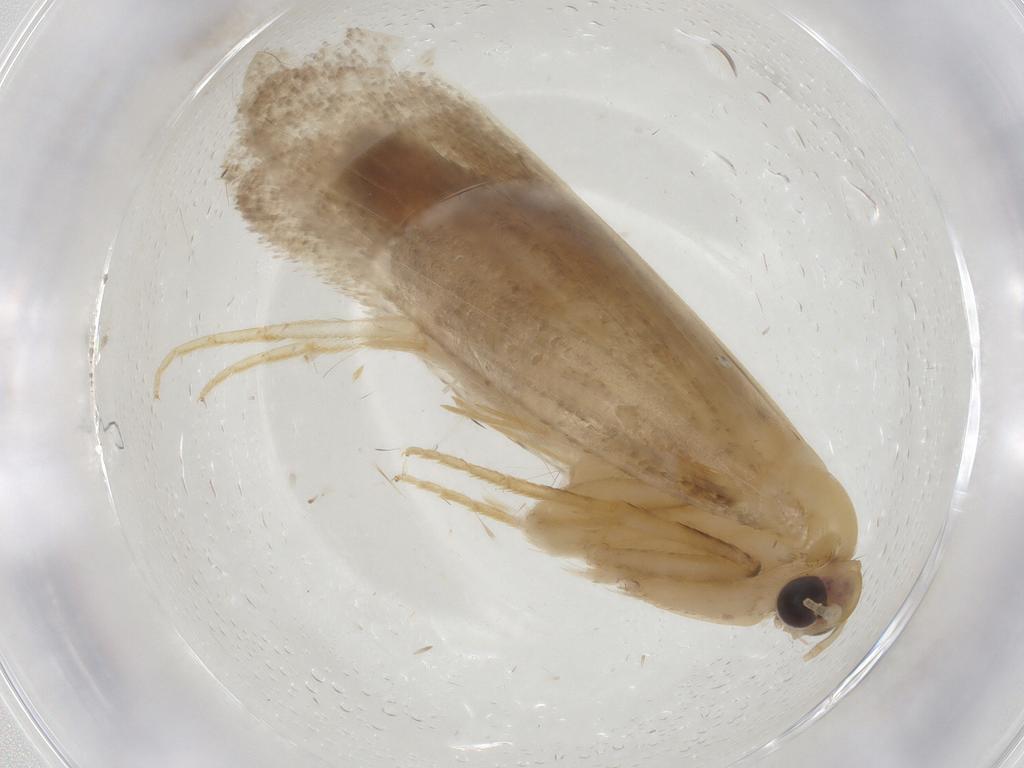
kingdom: Animalia
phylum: Arthropoda
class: Insecta
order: Lepidoptera
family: Tineidae
